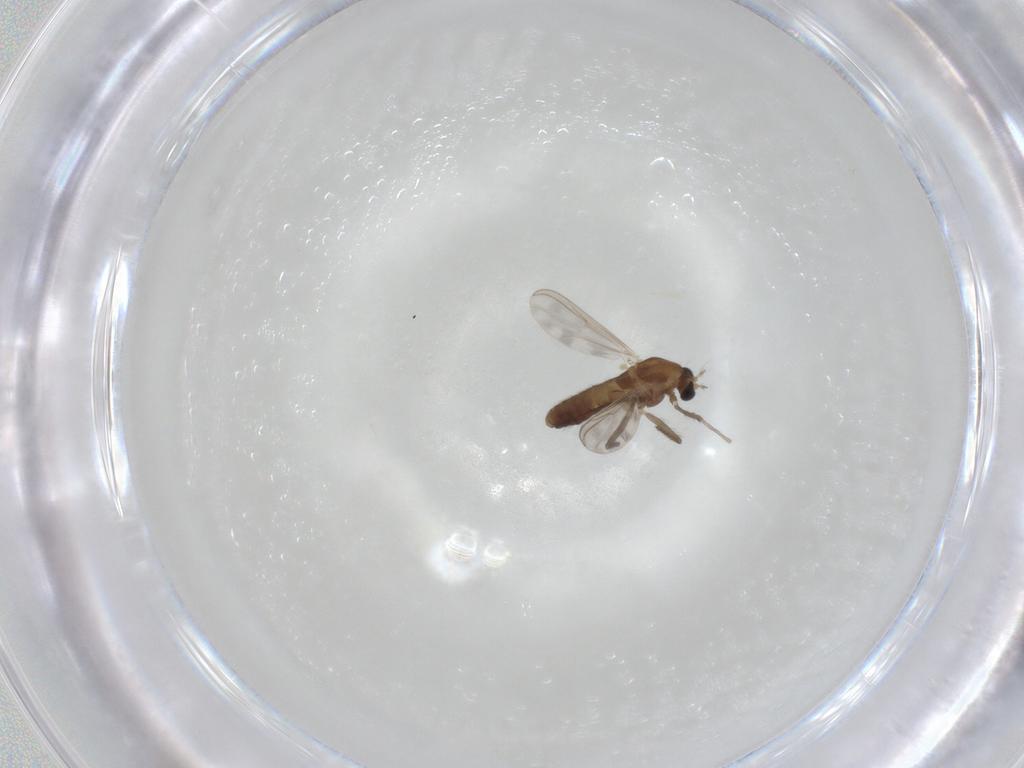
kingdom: Animalia
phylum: Arthropoda
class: Insecta
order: Diptera
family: Chironomidae
